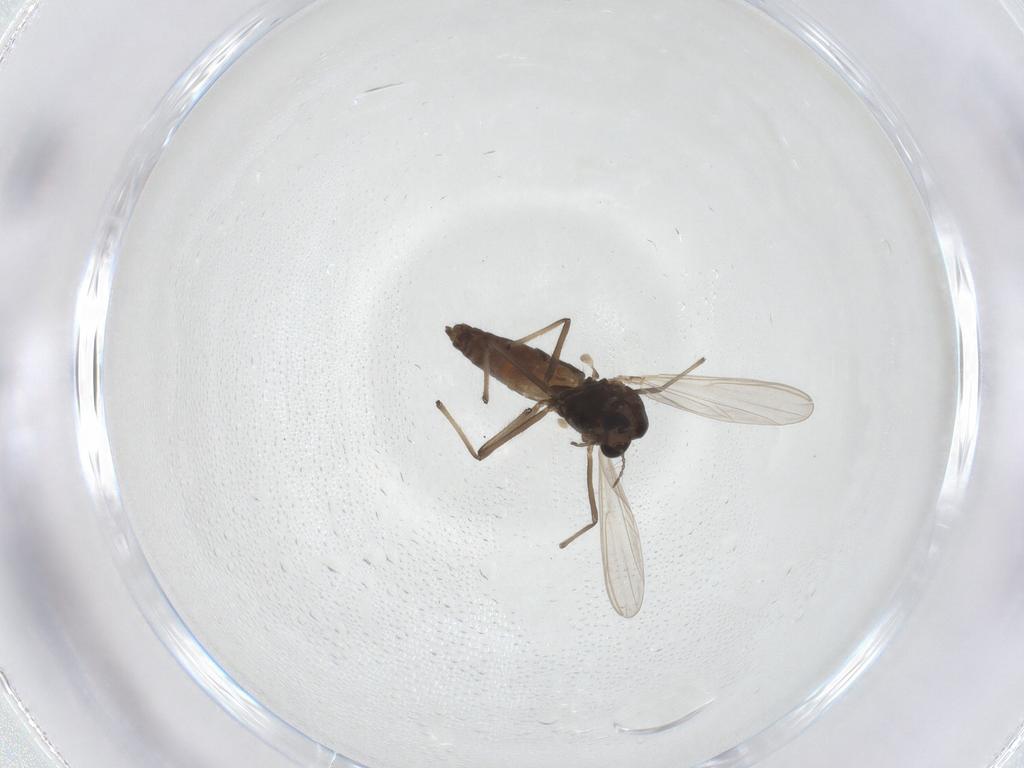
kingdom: Animalia
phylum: Arthropoda
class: Insecta
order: Diptera
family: Chironomidae
